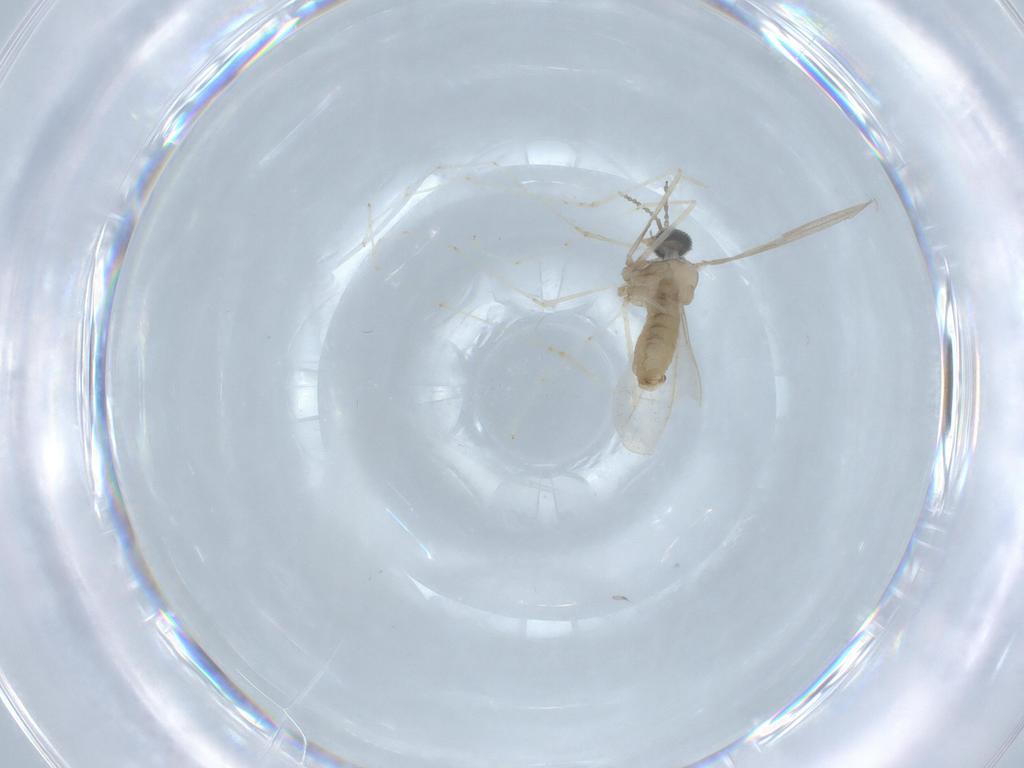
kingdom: Animalia
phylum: Arthropoda
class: Insecta
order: Diptera
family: Cecidomyiidae
